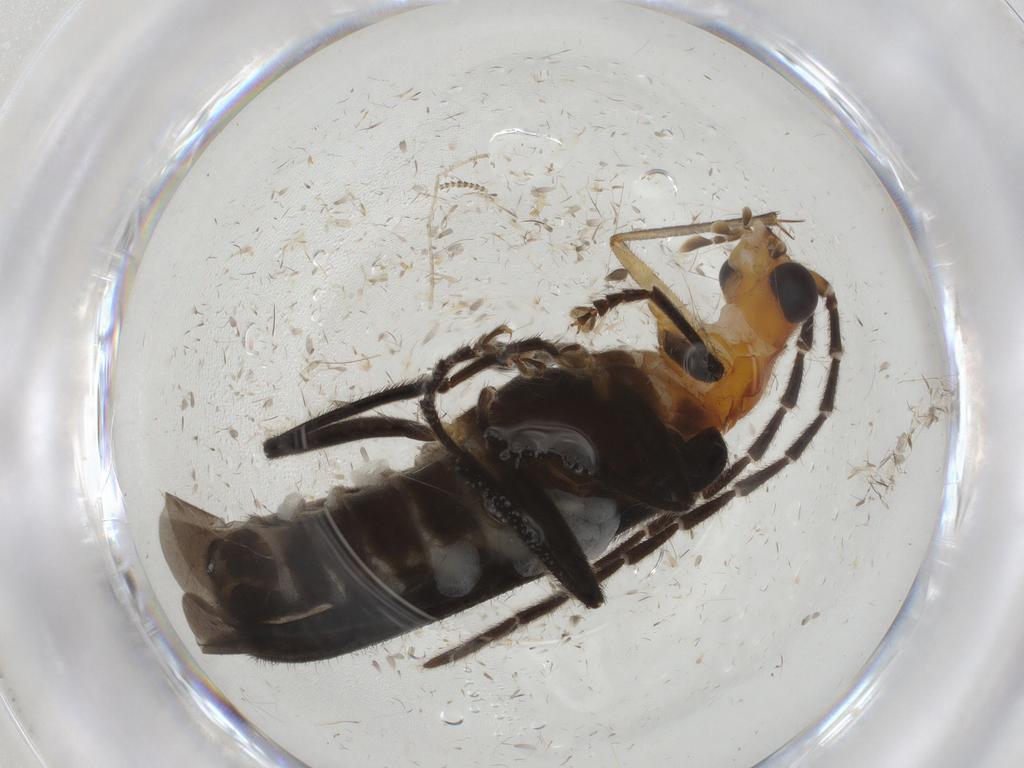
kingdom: Animalia
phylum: Arthropoda
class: Insecta
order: Coleoptera
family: Cantharidae
